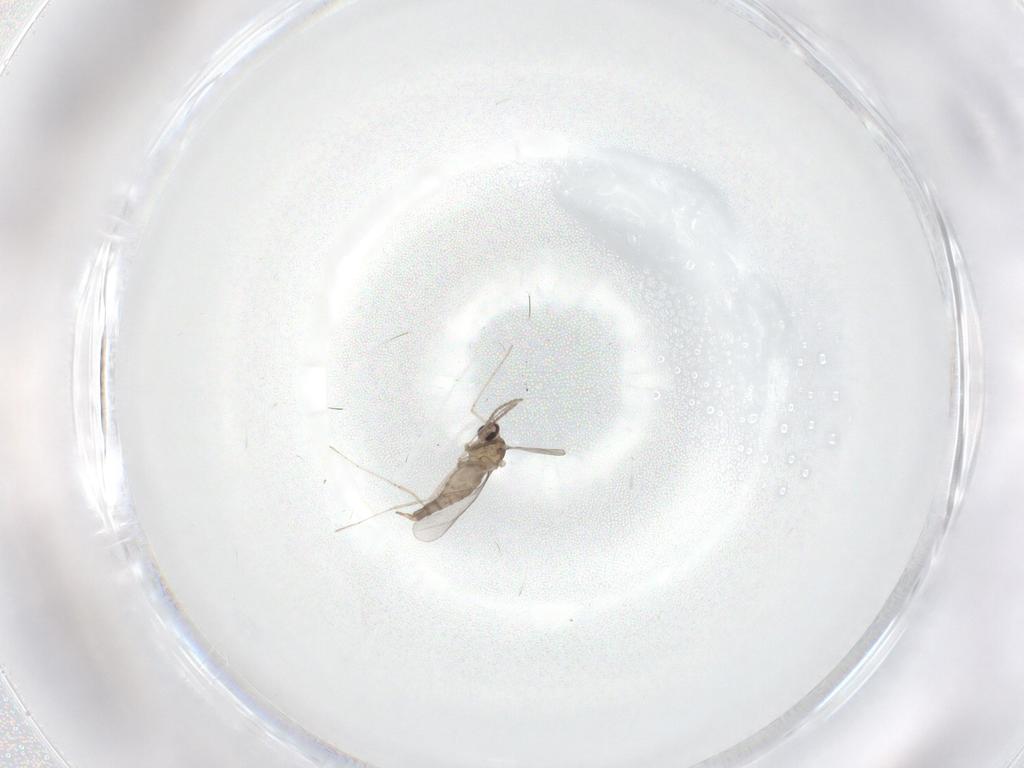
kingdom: Animalia
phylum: Arthropoda
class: Insecta
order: Diptera
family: Cecidomyiidae
